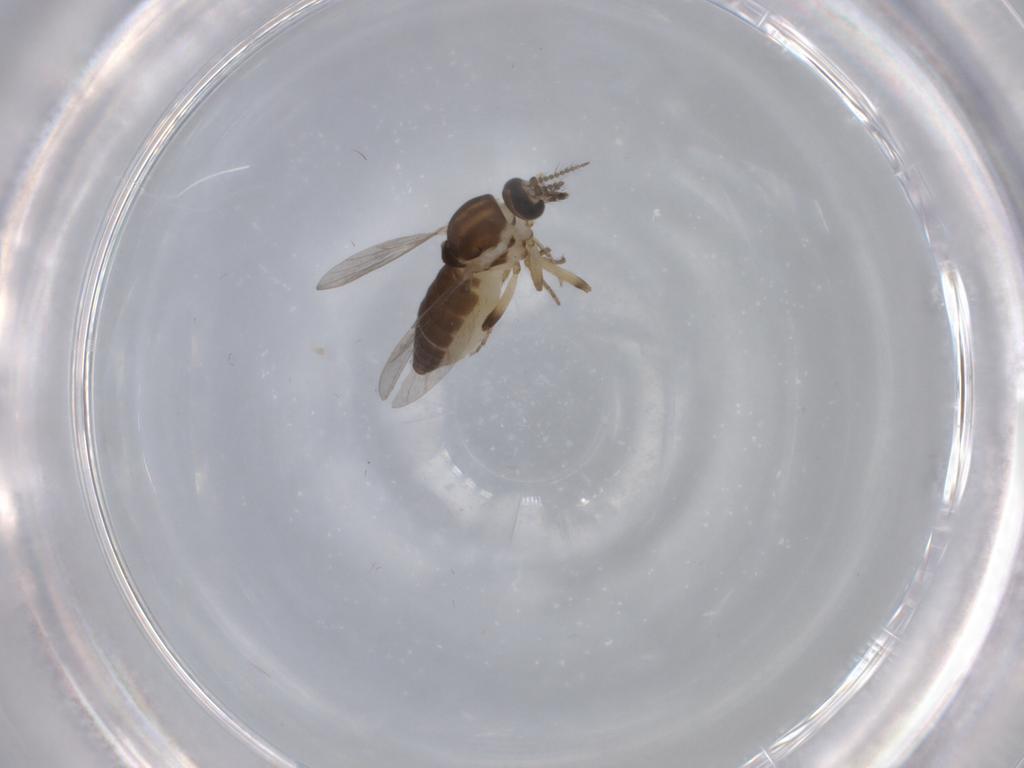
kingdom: Animalia
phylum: Arthropoda
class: Insecta
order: Diptera
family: Ceratopogonidae
